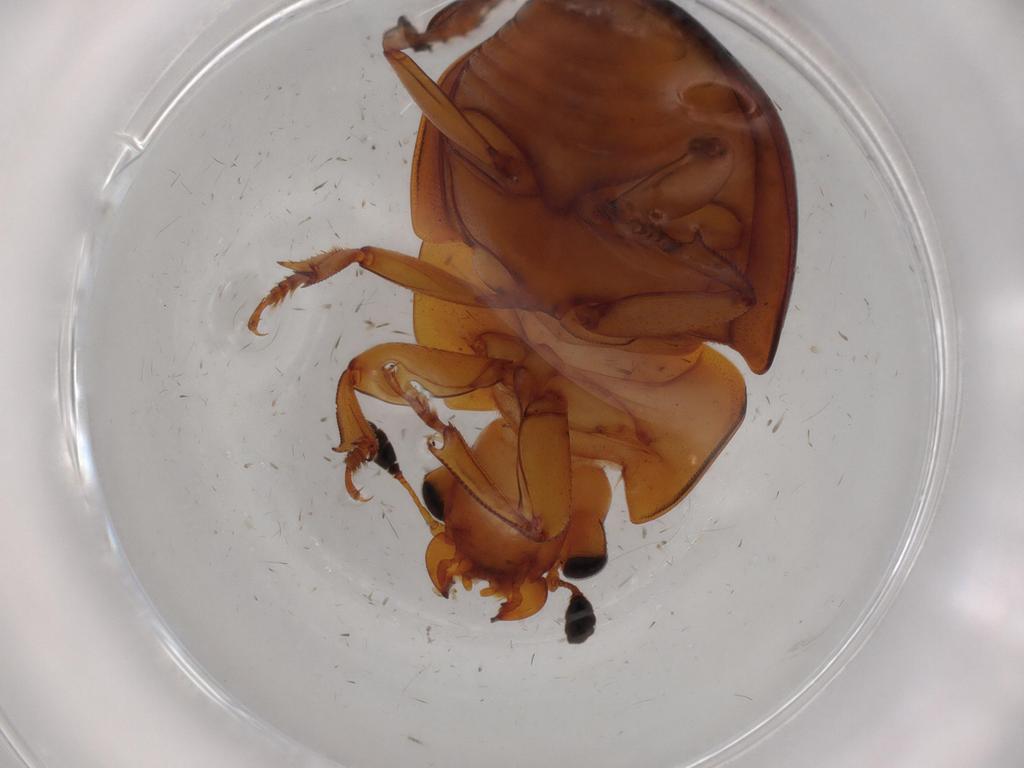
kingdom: Animalia
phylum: Arthropoda
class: Insecta
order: Coleoptera
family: Nitidulidae
